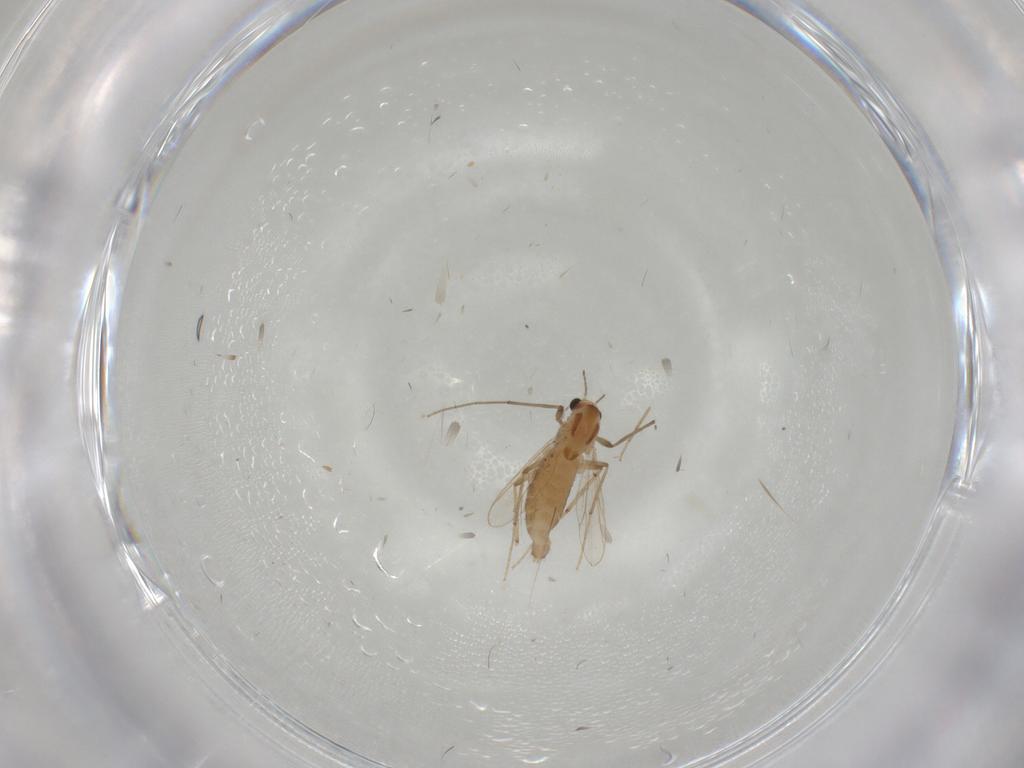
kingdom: Animalia
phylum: Arthropoda
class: Insecta
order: Diptera
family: Chironomidae
